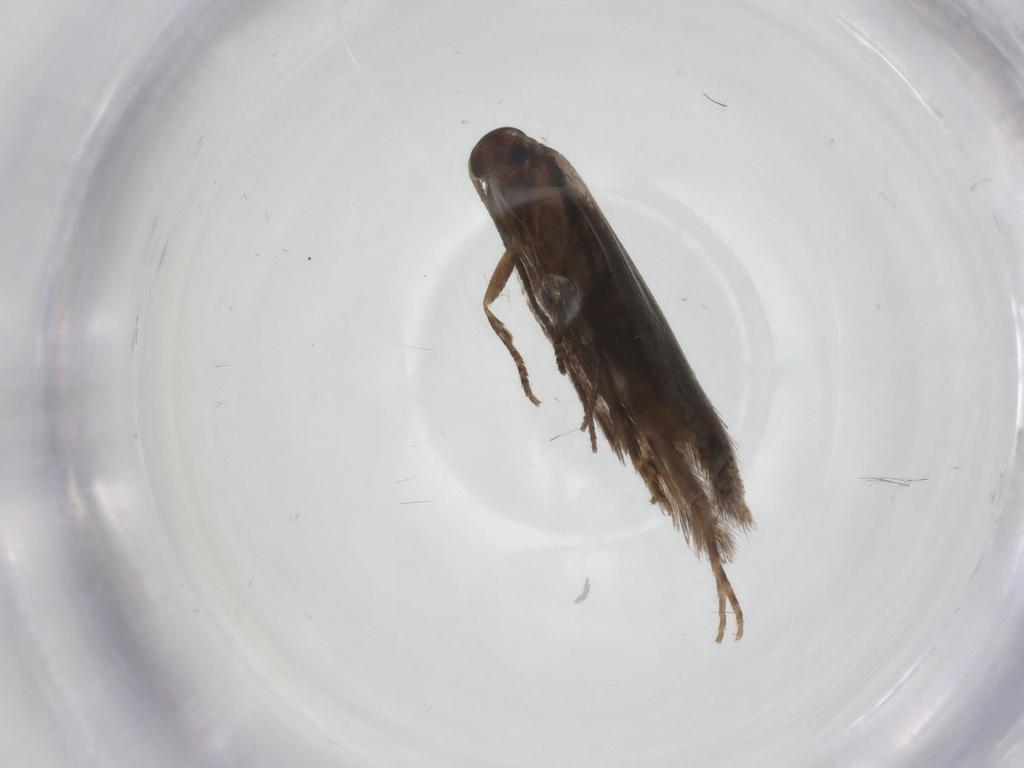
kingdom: Animalia
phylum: Arthropoda
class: Insecta
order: Lepidoptera
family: Elachistidae
